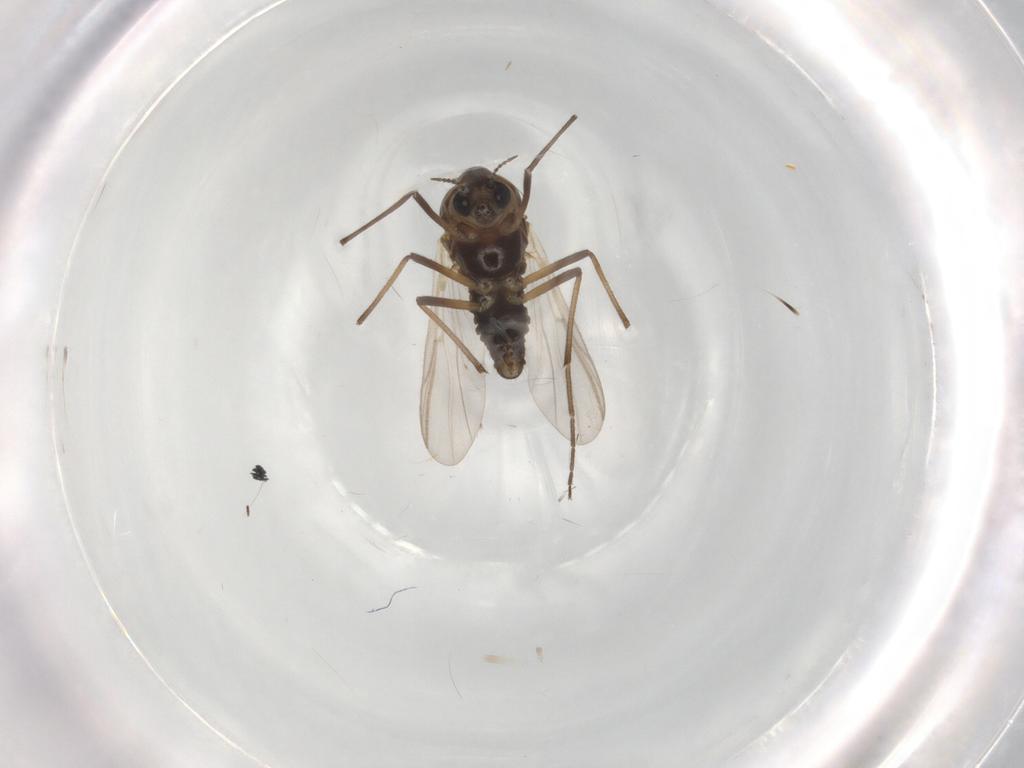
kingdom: Animalia
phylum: Arthropoda
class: Insecta
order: Diptera
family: Chironomidae
